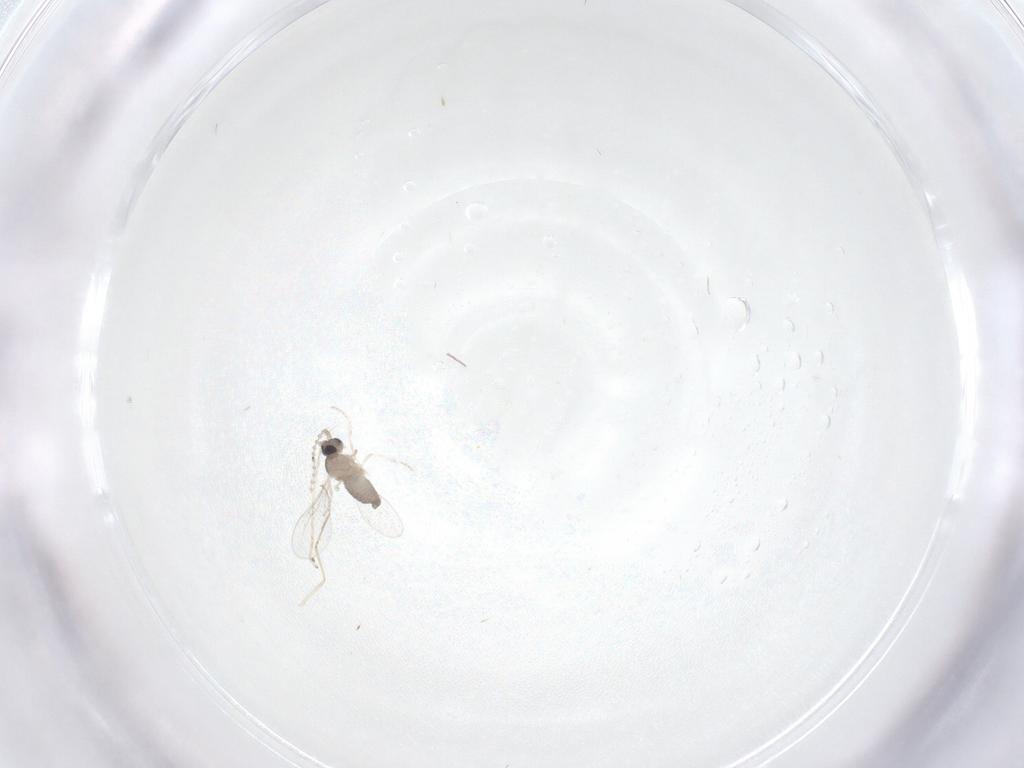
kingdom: Animalia
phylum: Arthropoda
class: Insecta
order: Diptera
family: Cecidomyiidae
